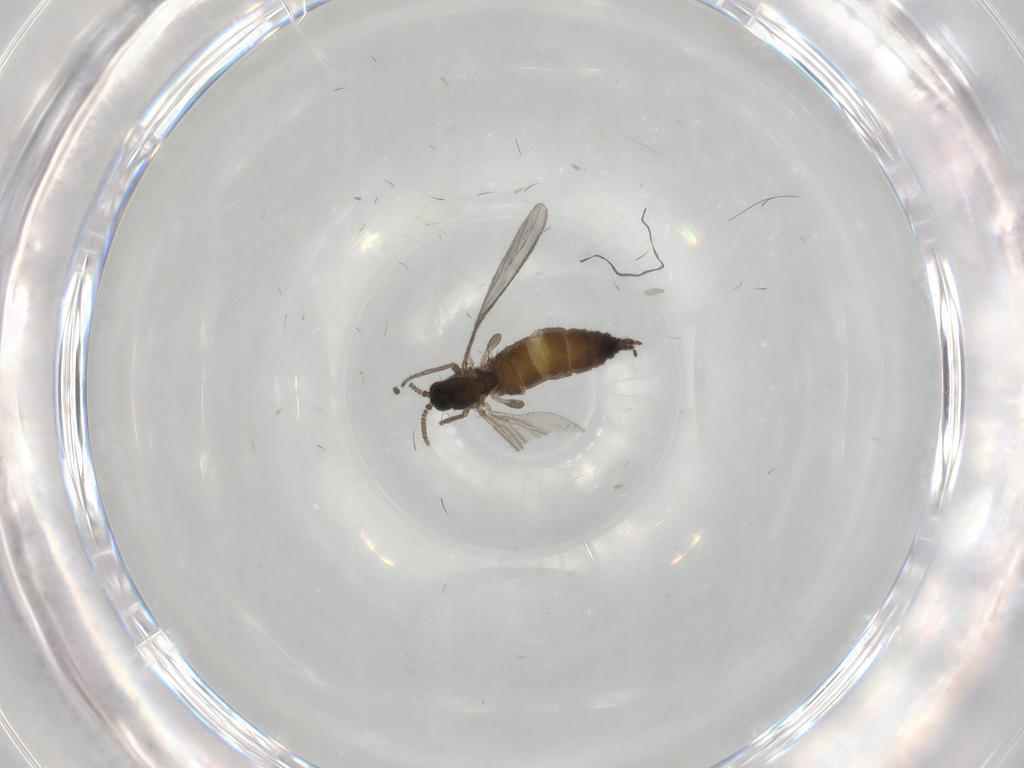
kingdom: Animalia
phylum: Arthropoda
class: Insecta
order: Diptera
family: Sciaridae
